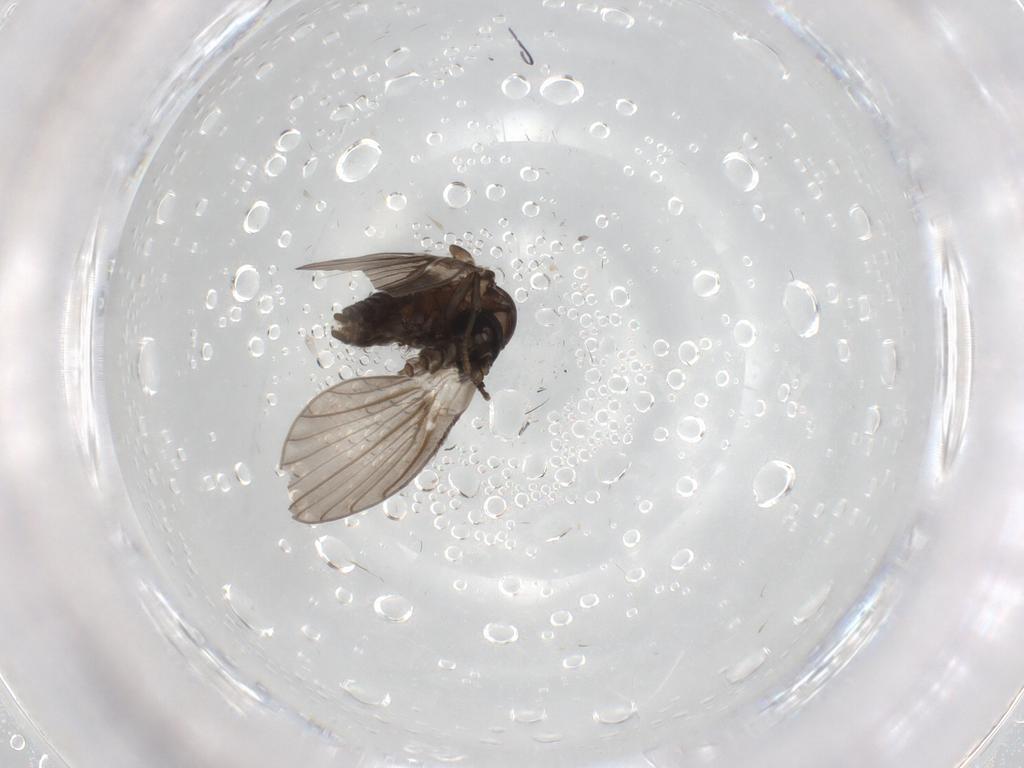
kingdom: Animalia
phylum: Arthropoda
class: Insecta
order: Diptera
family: Sphaeroceridae
